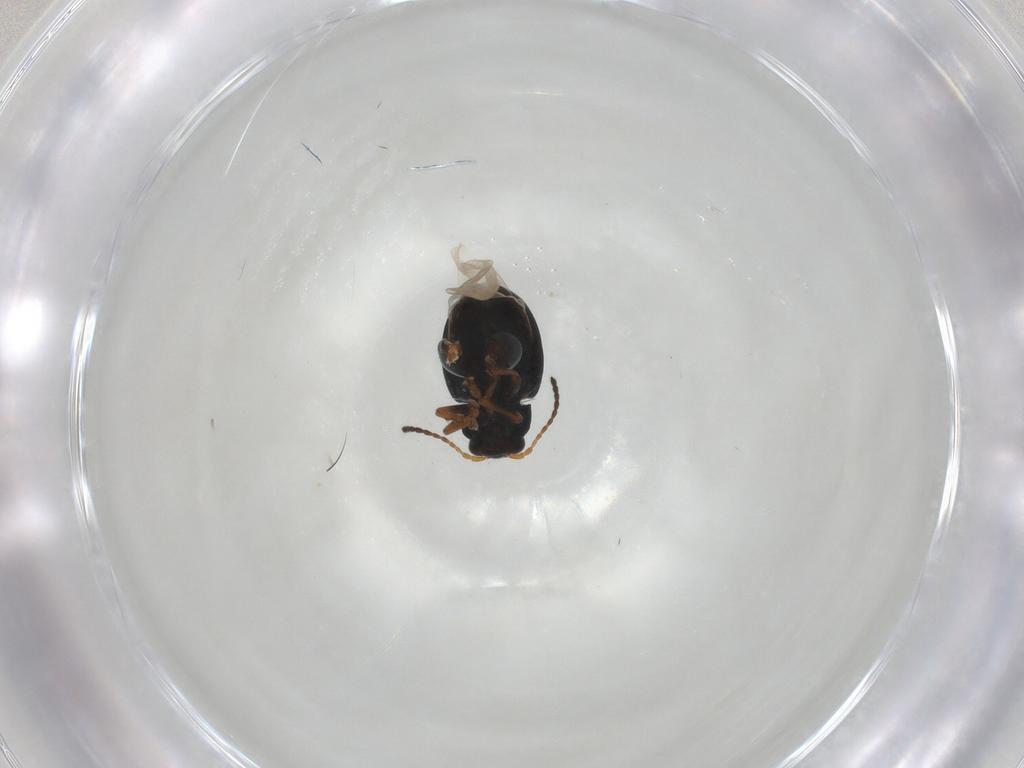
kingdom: Animalia
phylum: Arthropoda
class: Insecta
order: Coleoptera
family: Chrysomelidae
